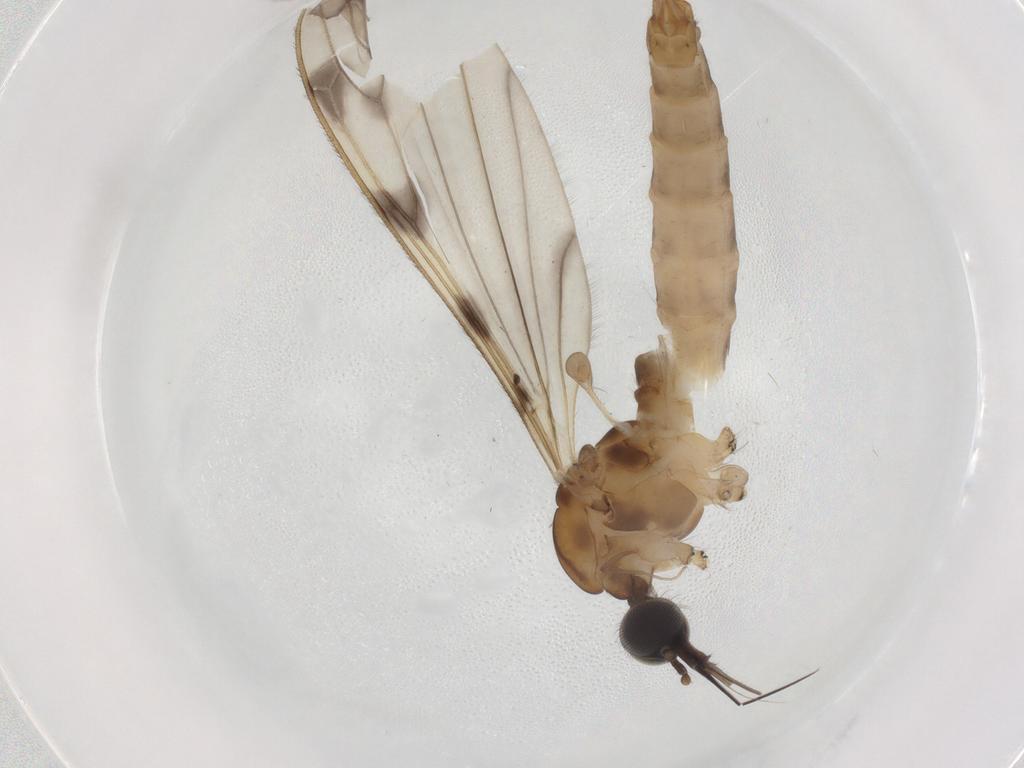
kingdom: Animalia
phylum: Arthropoda
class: Insecta
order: Diptera
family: Limoniidae
